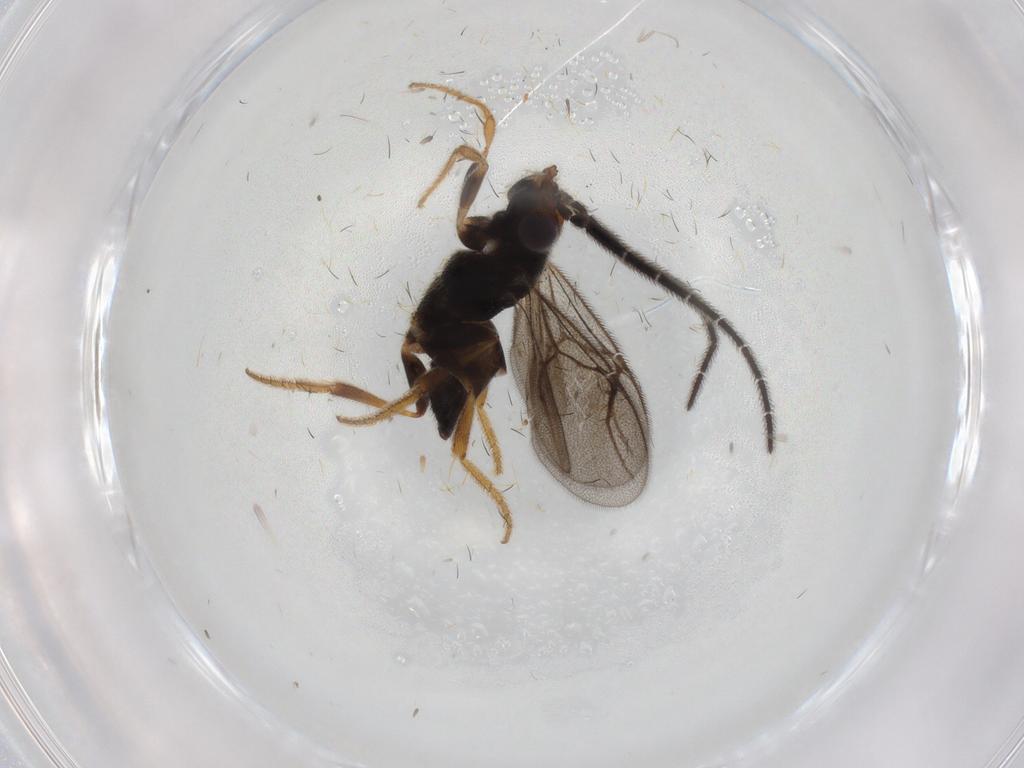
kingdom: Animalia
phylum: Arthropoda
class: Insecta
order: Hymenoptera
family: Dryinidae
